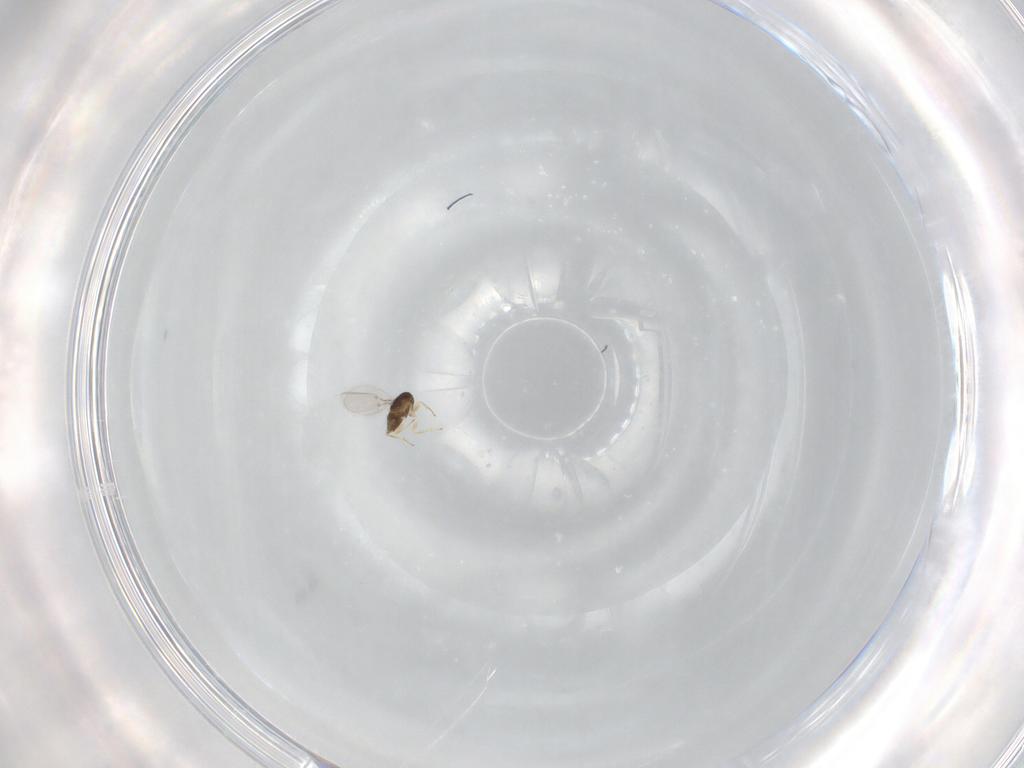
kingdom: Animalia
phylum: Arthropoda
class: Insecta
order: Hymenoptera
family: Encyrtidae
